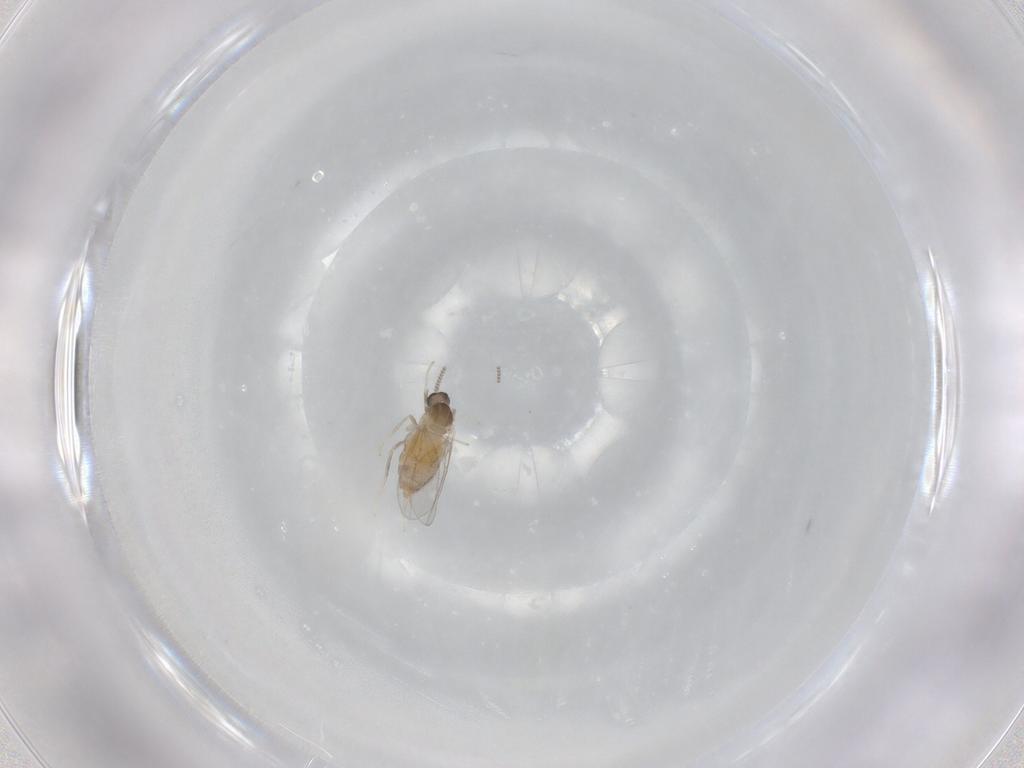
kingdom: Animalia
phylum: Arthropoda
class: Insecta
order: Diptera
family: Cecidomyiidae
